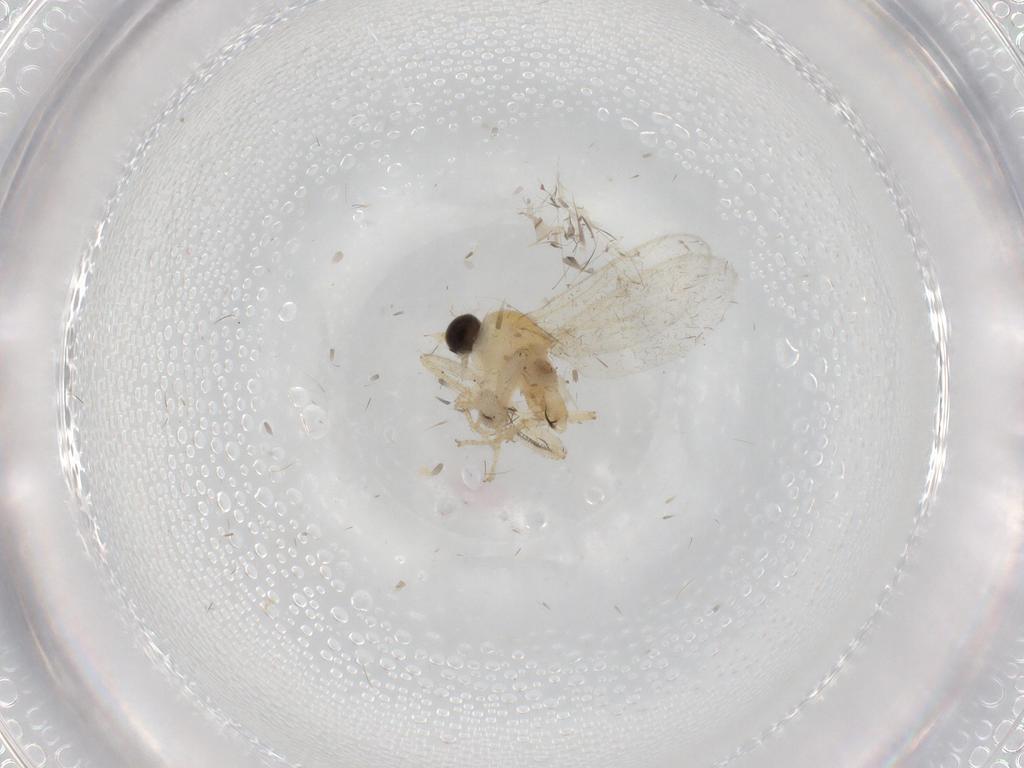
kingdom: Animalia
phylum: Arthropoda
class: Insecta
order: Diptera
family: Hybotidae
